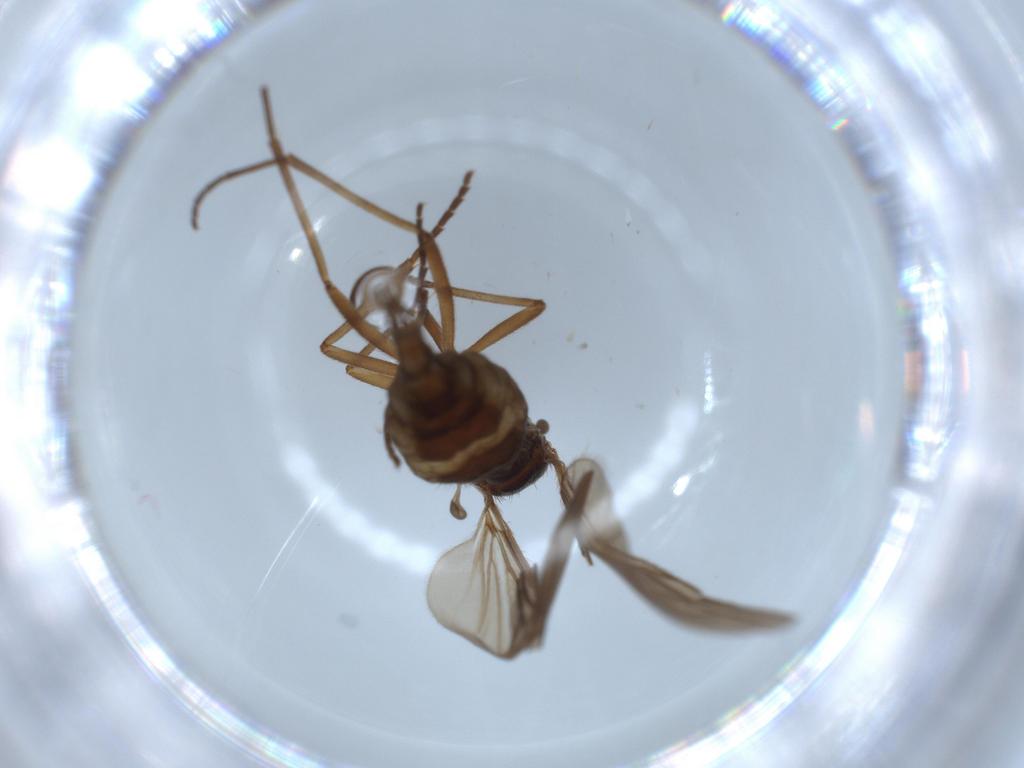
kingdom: Animalia
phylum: Arthropoda
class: Insecta
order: Diptera
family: Sciaridae
